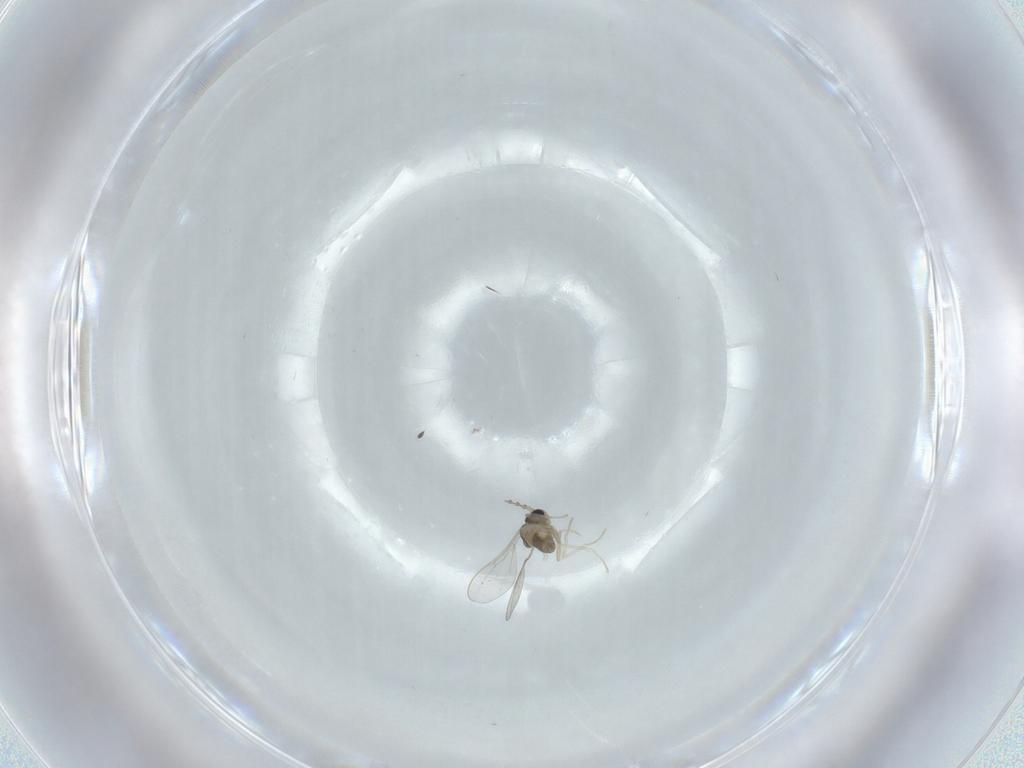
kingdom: Animalia
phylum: Arthropoda
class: Insecta
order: Diptera
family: Cecidomyiidae
